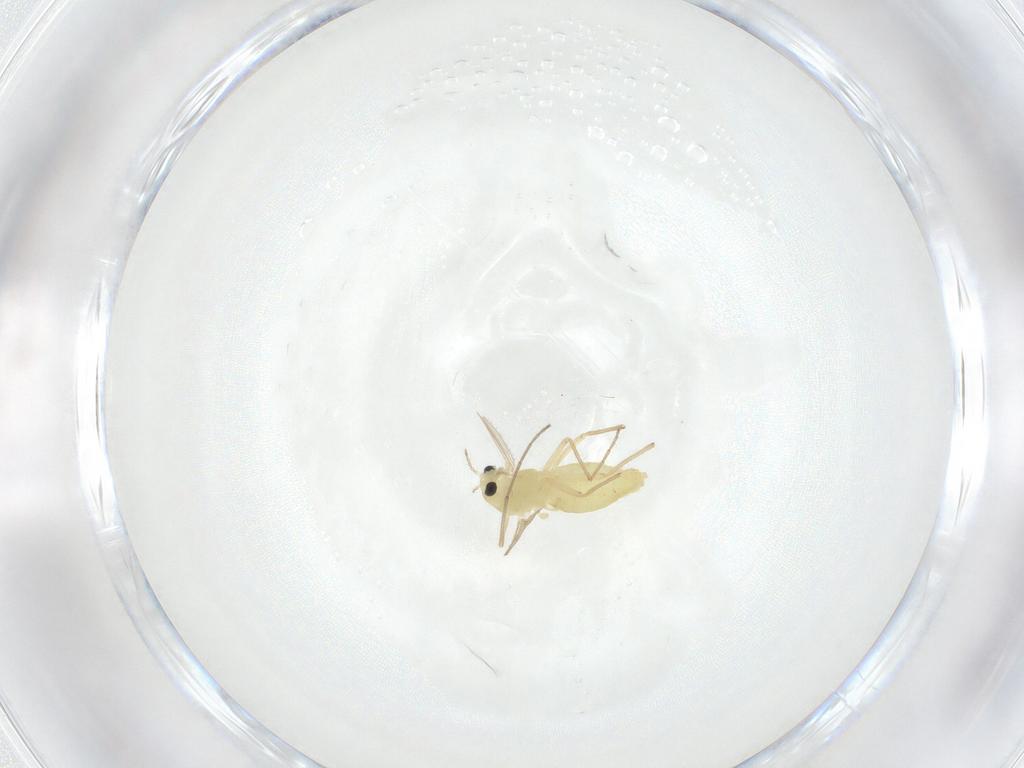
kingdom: Animalia
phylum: Arthropoda
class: Insecta
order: Diptera
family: Chironomidae
